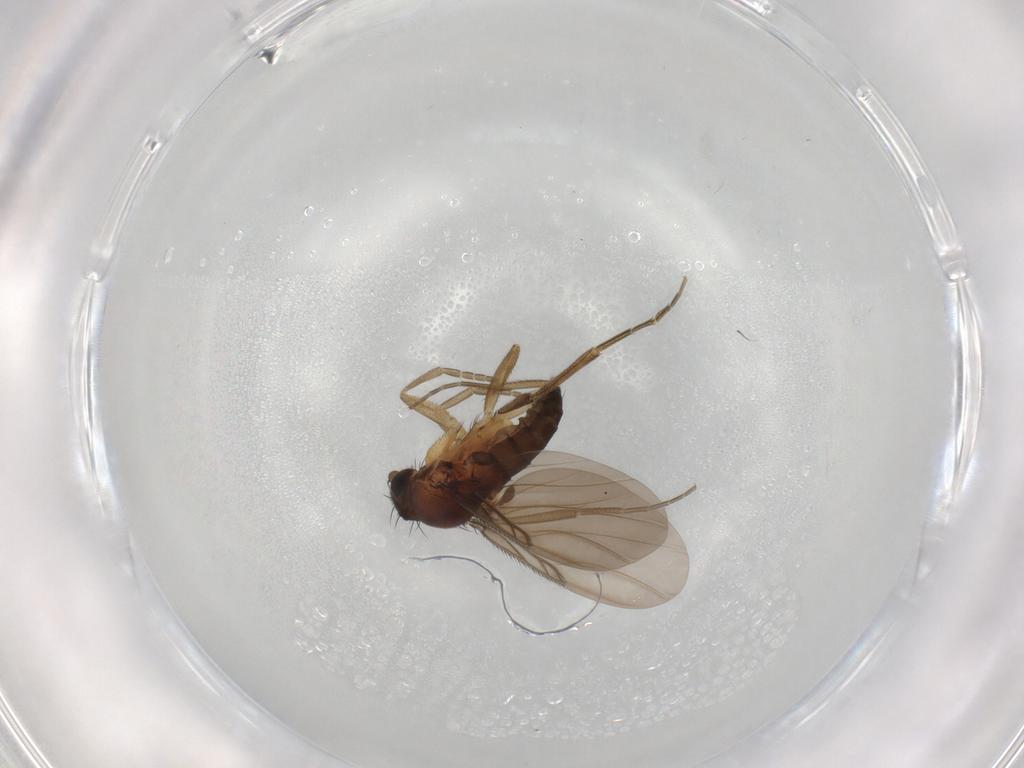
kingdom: Animalia
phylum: Arthropoda
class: Insecta
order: Diptera
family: Phoridae
